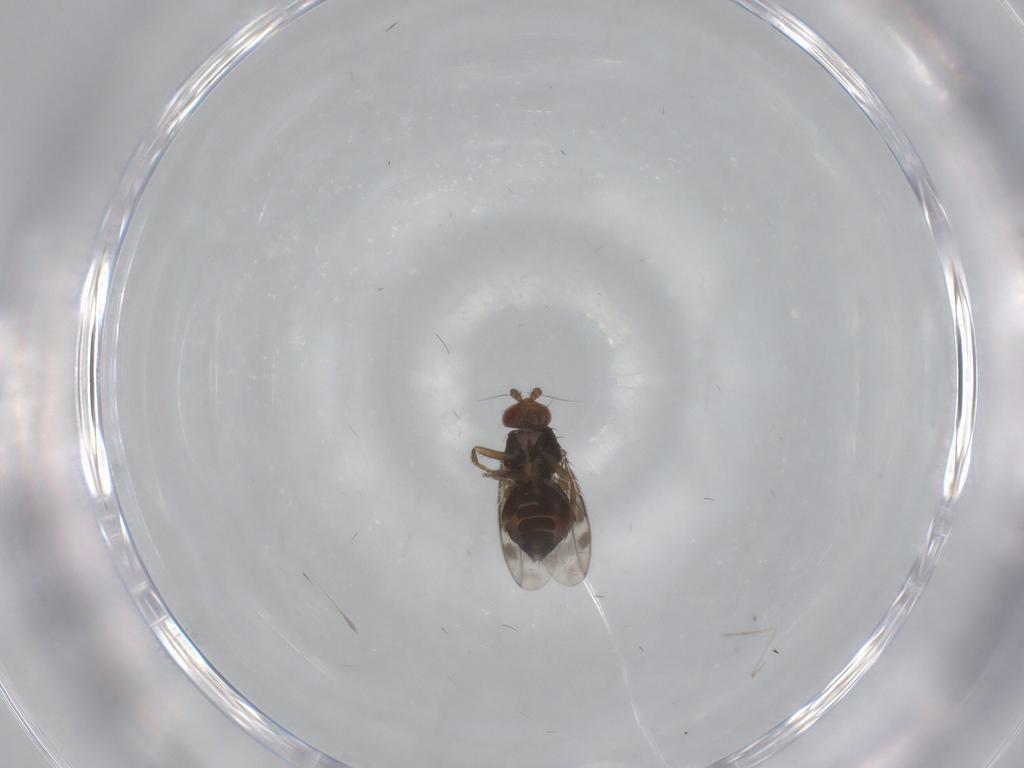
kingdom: Animalia
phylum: Arthropoda
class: Insecta
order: Diptera
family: Sphaeroceridae
